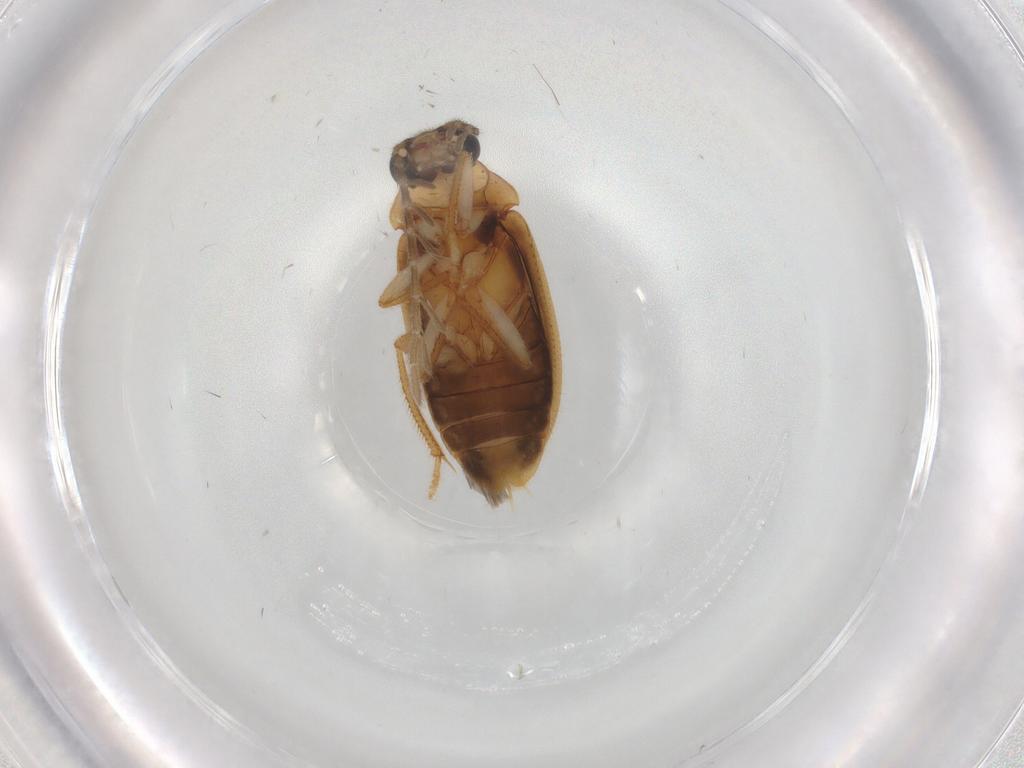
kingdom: Animalia
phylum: Arthropoda
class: Insecta
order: Coleoptera
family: Ptilodactylidae
